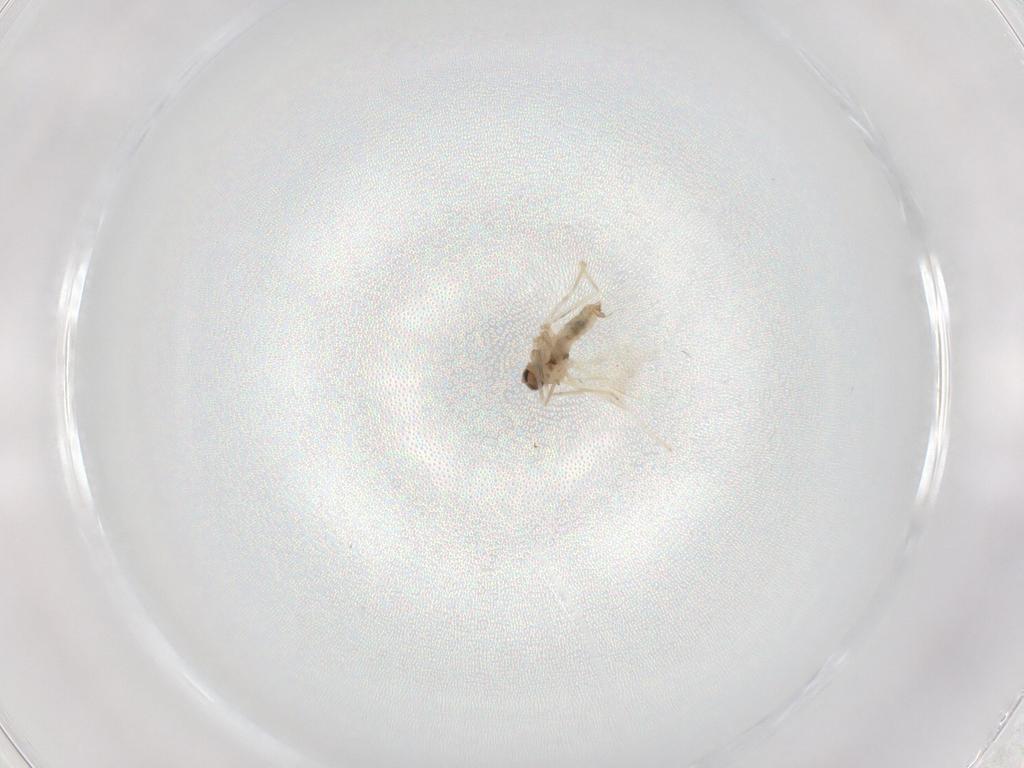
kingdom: Animalia
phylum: Arthropoda
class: Insecta
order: Diptera
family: Cecidomyiidae
